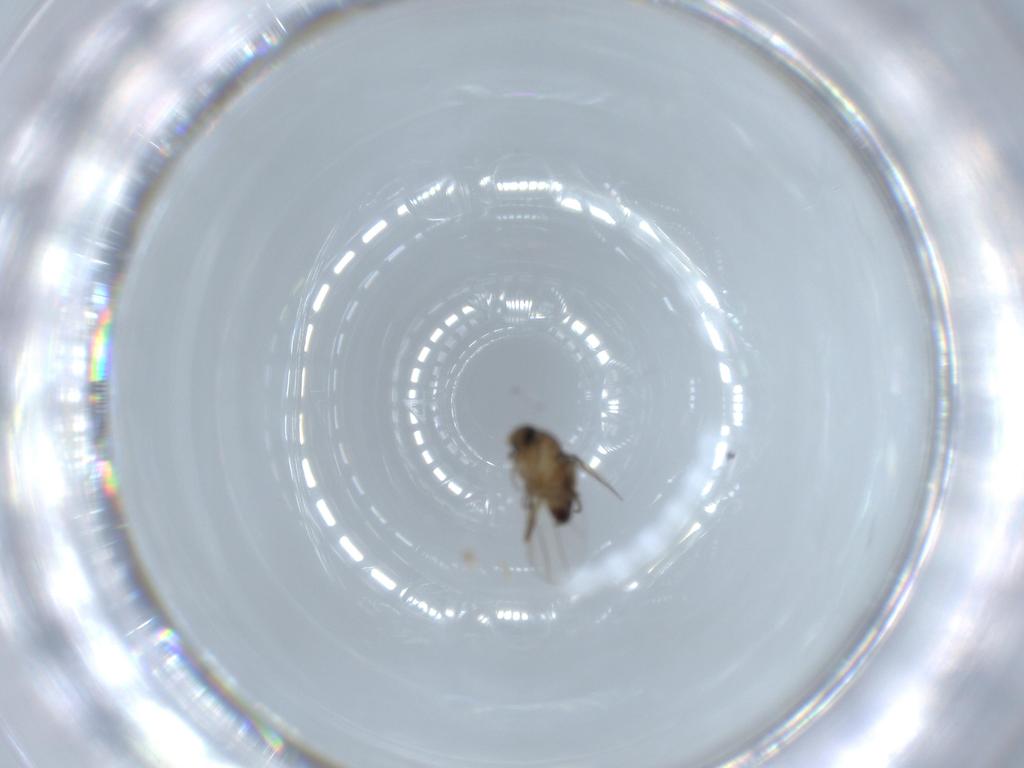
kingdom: Animalia
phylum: Arthropoda
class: Insecta
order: Diptera
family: Phoridae
